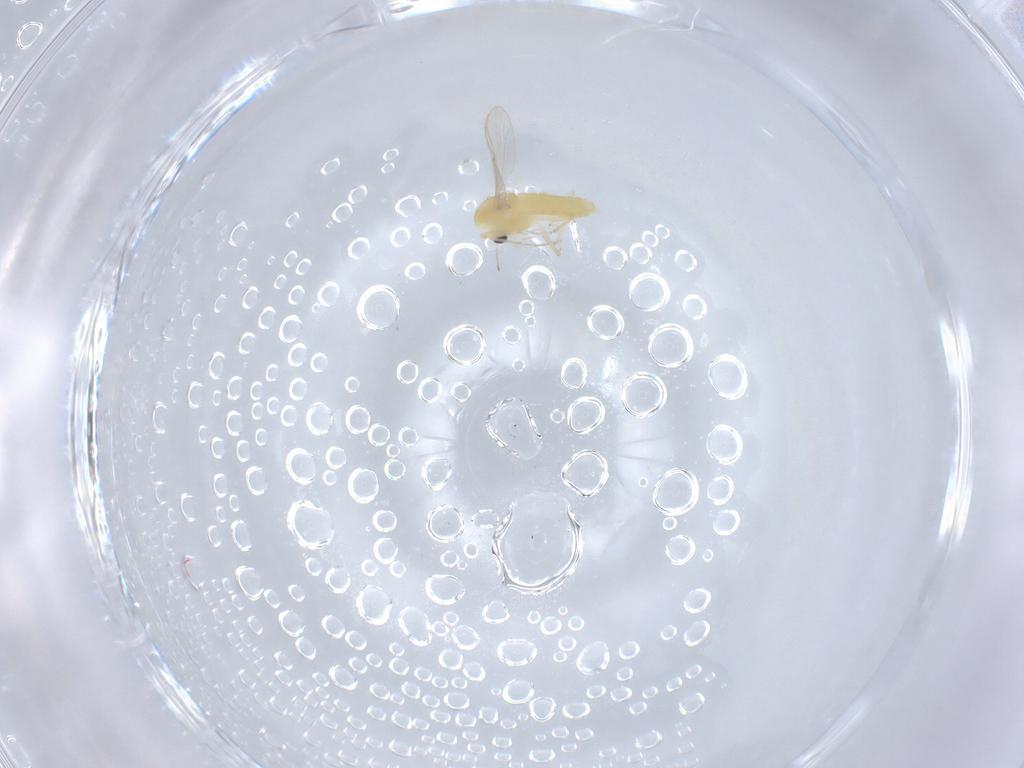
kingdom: Animalia
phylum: Arthropoda
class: Insecta
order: Diptera
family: Chironomidae
